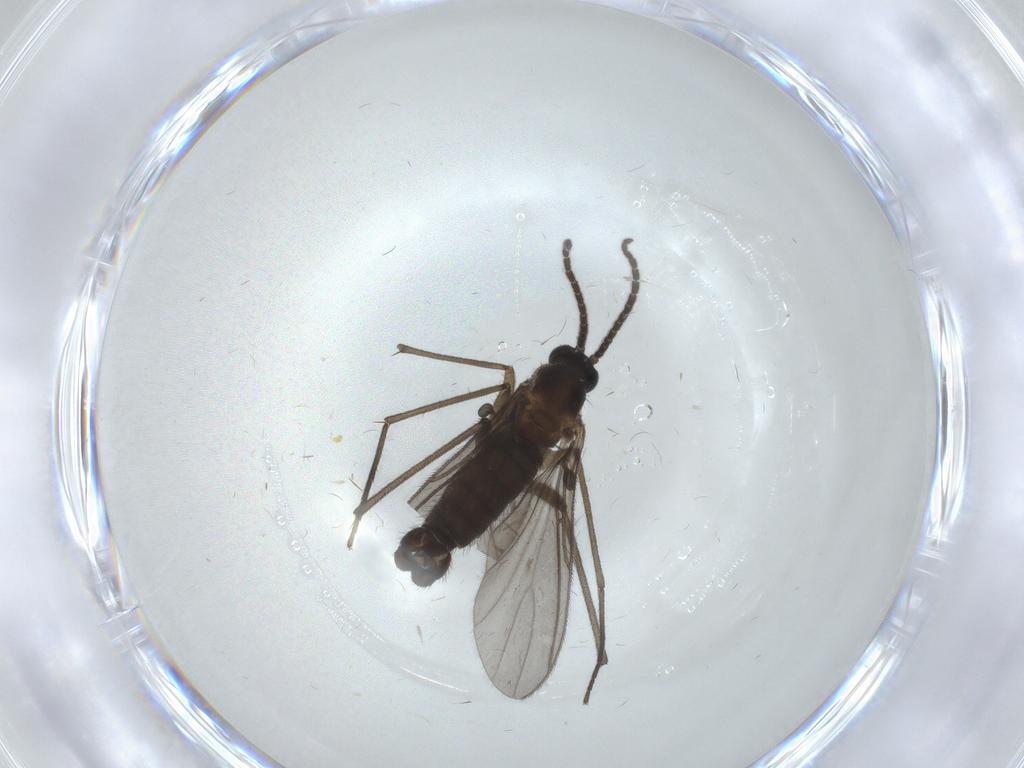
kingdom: Animalia
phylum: Arthropoda
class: Insecta
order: Diptera
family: Sciaridae
